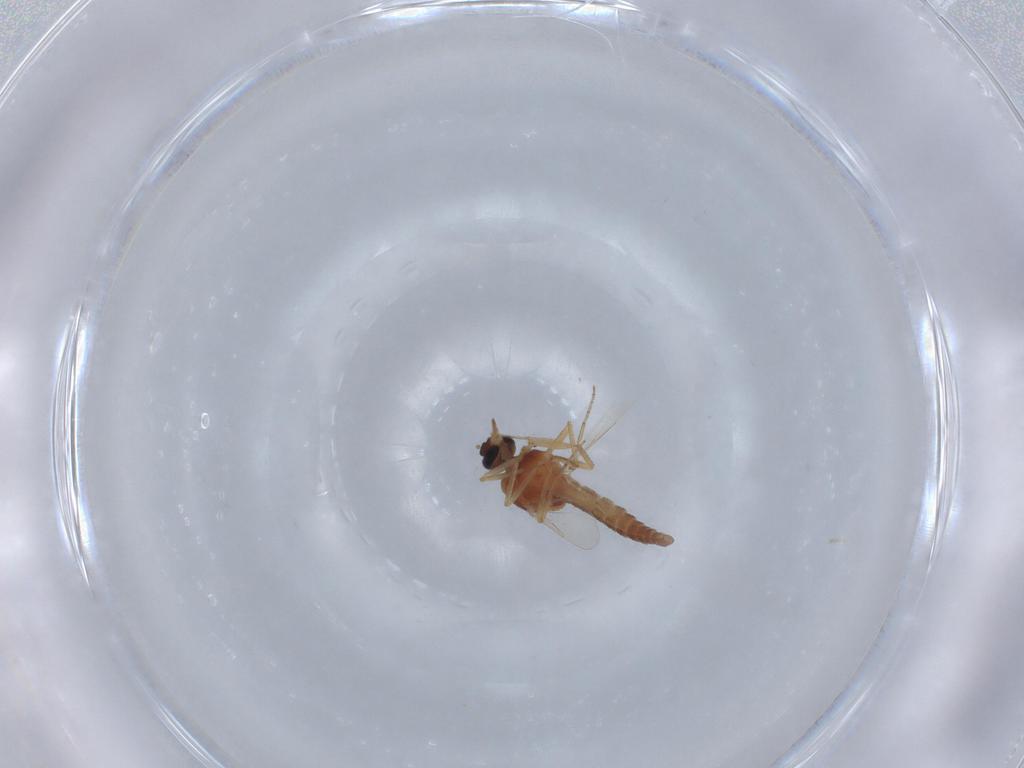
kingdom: Animalia
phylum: Arthropoda
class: Insecta
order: Diptera
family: Ceratopogonidae
